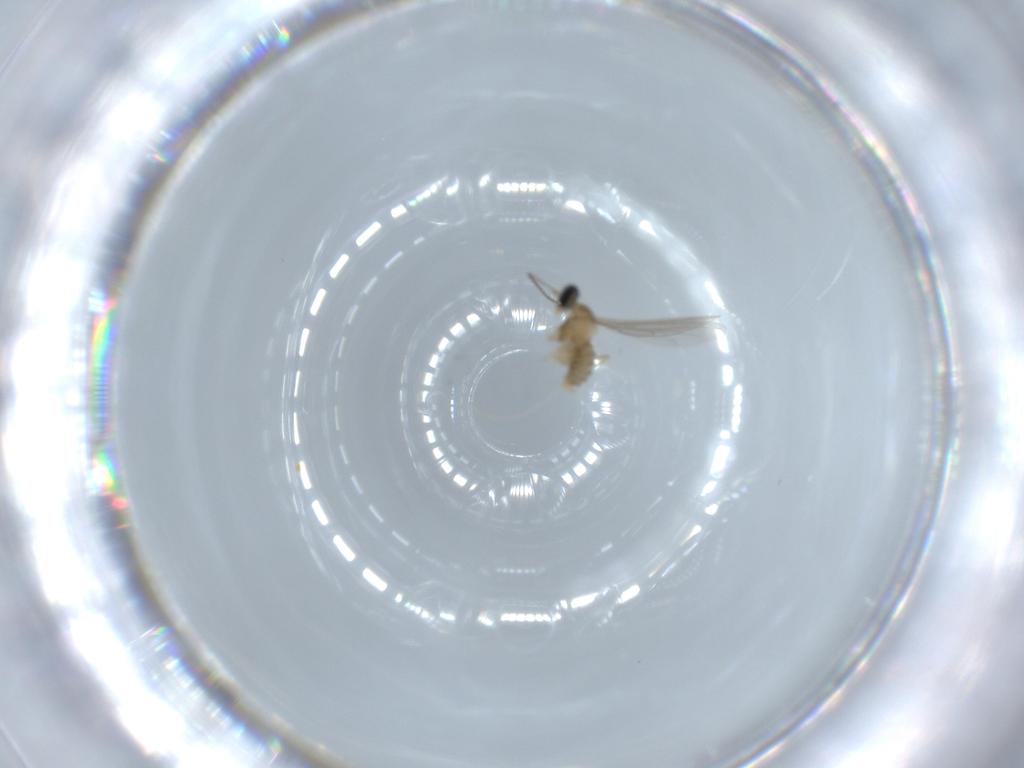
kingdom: Animalia
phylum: Arthropoda
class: Insecta
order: Diptera
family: Cecidomyiidae
